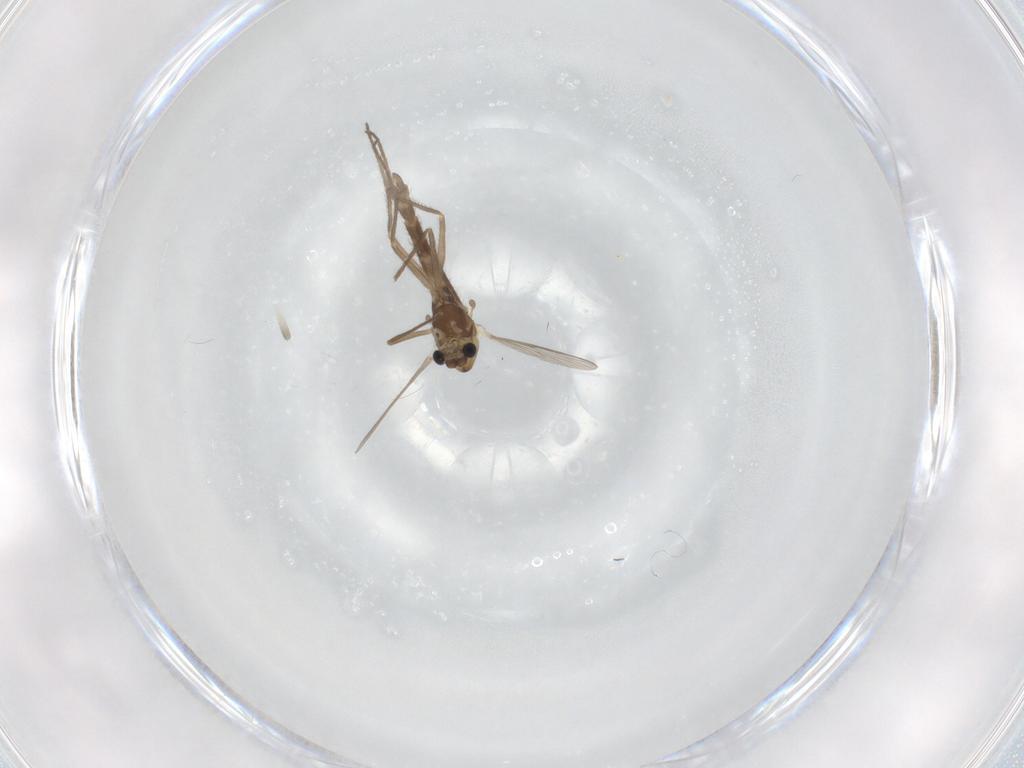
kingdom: Animalia
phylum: Arthropoda
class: Insecta
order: Diptera
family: Chironomidae
